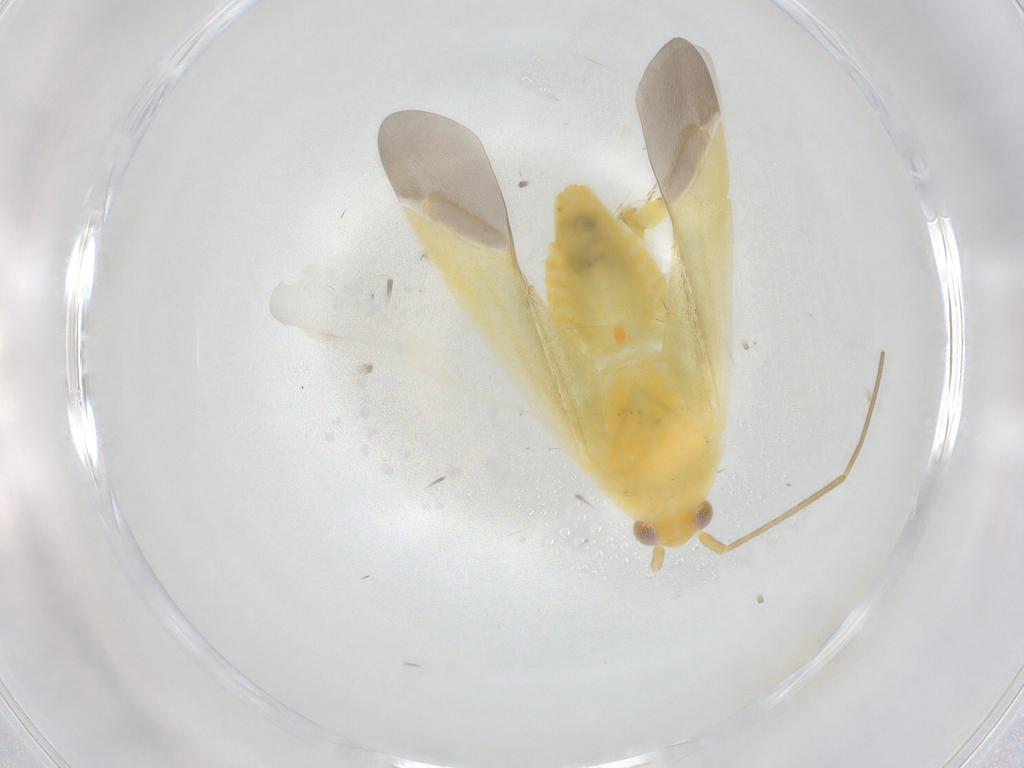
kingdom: Animalia
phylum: Arthropoda
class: Insecta
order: Hemiptera
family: Miridae
